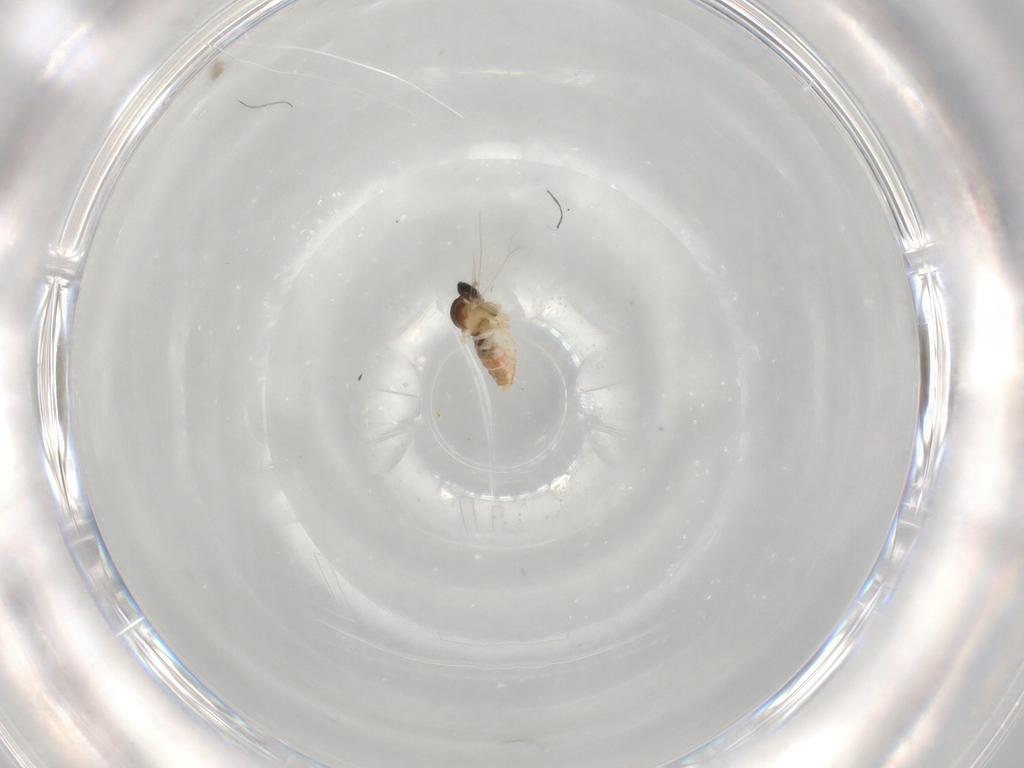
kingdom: Animalia
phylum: Arthropoda
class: Insecta
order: Diptera
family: Cecidomyiidae
